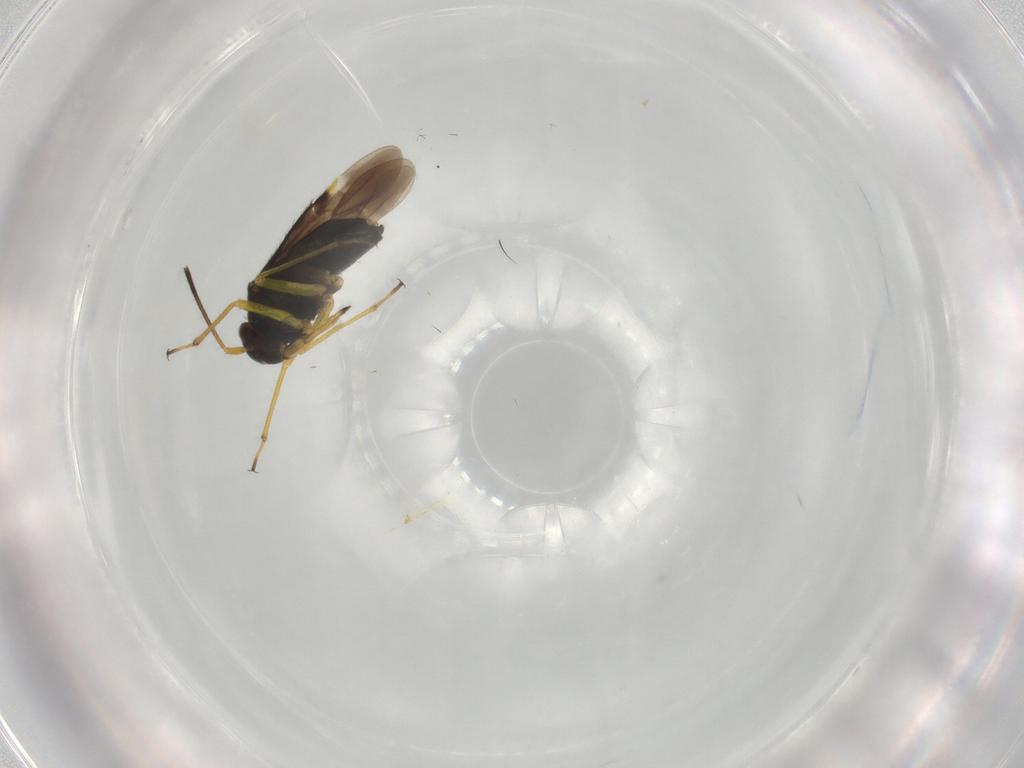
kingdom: Animalia
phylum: Arthropoda
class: Insecta
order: Hemiptera
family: Miridae
